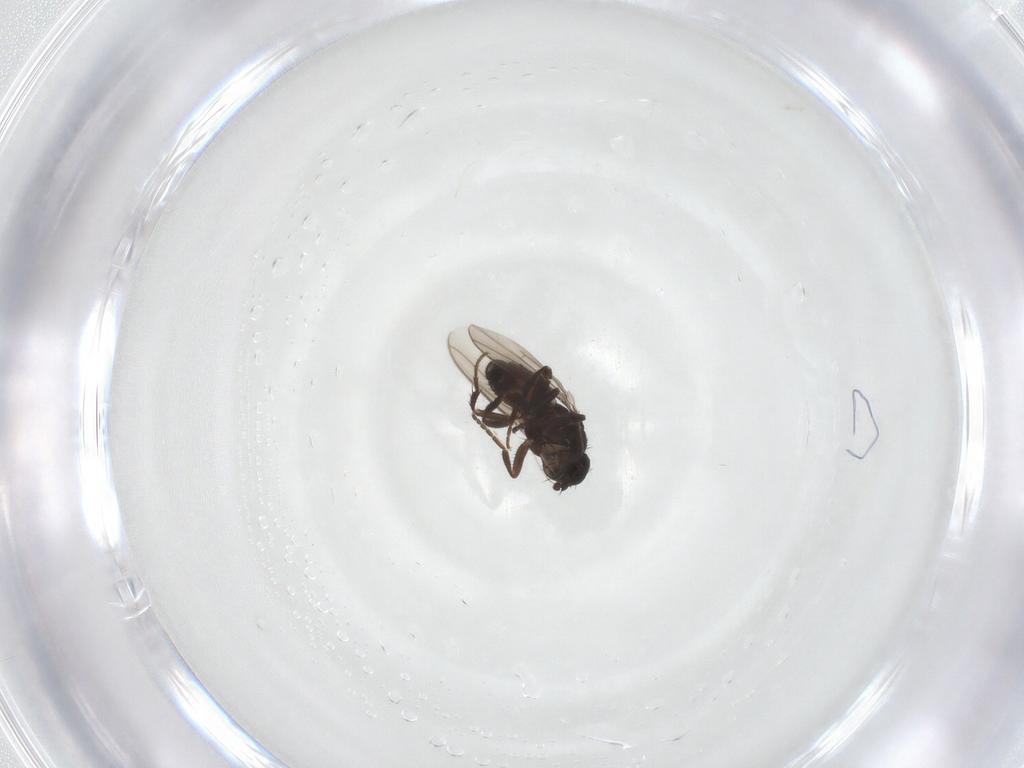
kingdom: Animalia
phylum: Arthropoda
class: Insecta
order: Diptera
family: Sphaeroceridae
